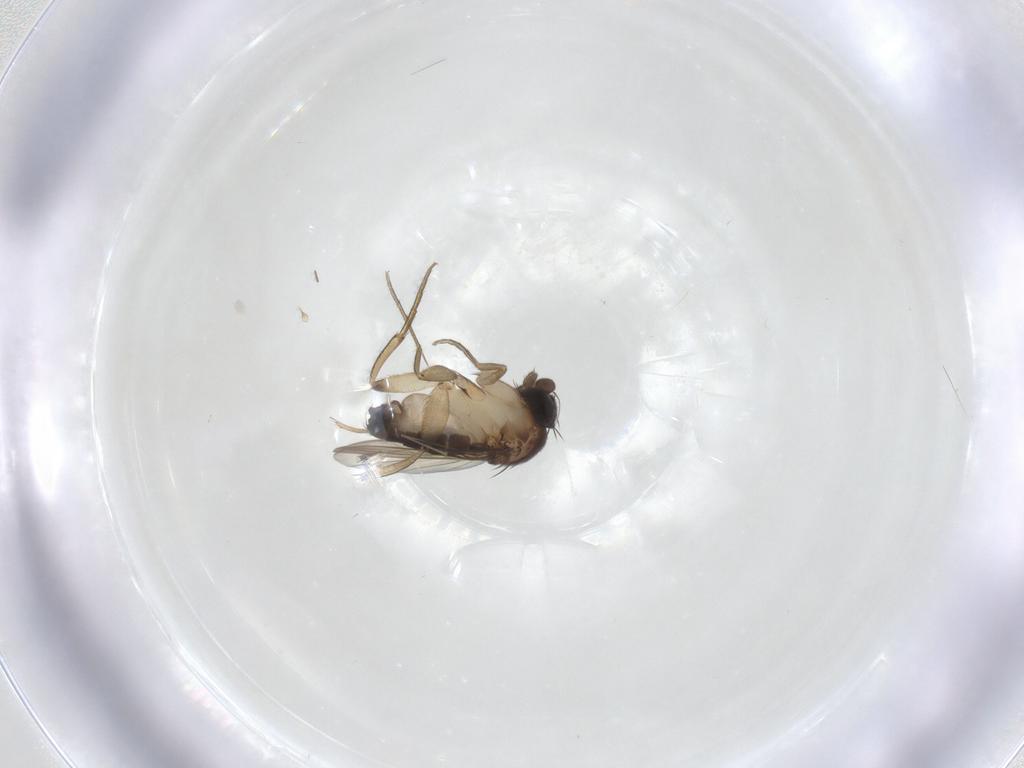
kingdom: Animalia
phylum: Arthropoda
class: Insecta
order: Diptera
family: Phoridae
